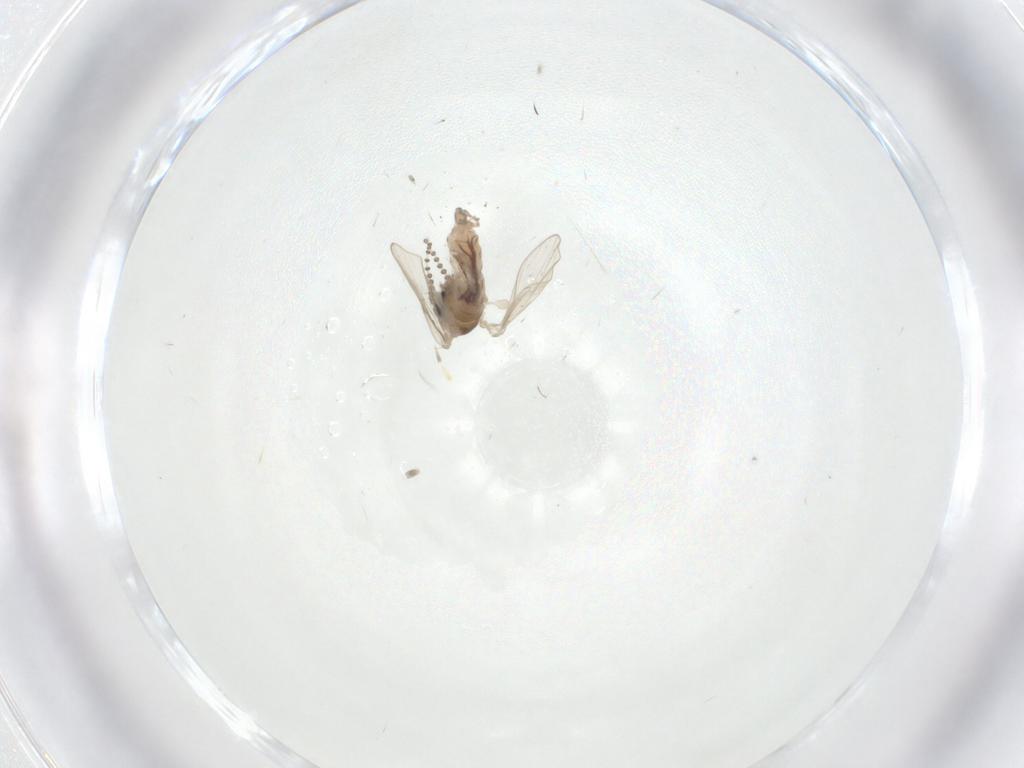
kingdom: Animalia
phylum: Arthropoda
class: Insecta
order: Diptera
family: Psychodidae
